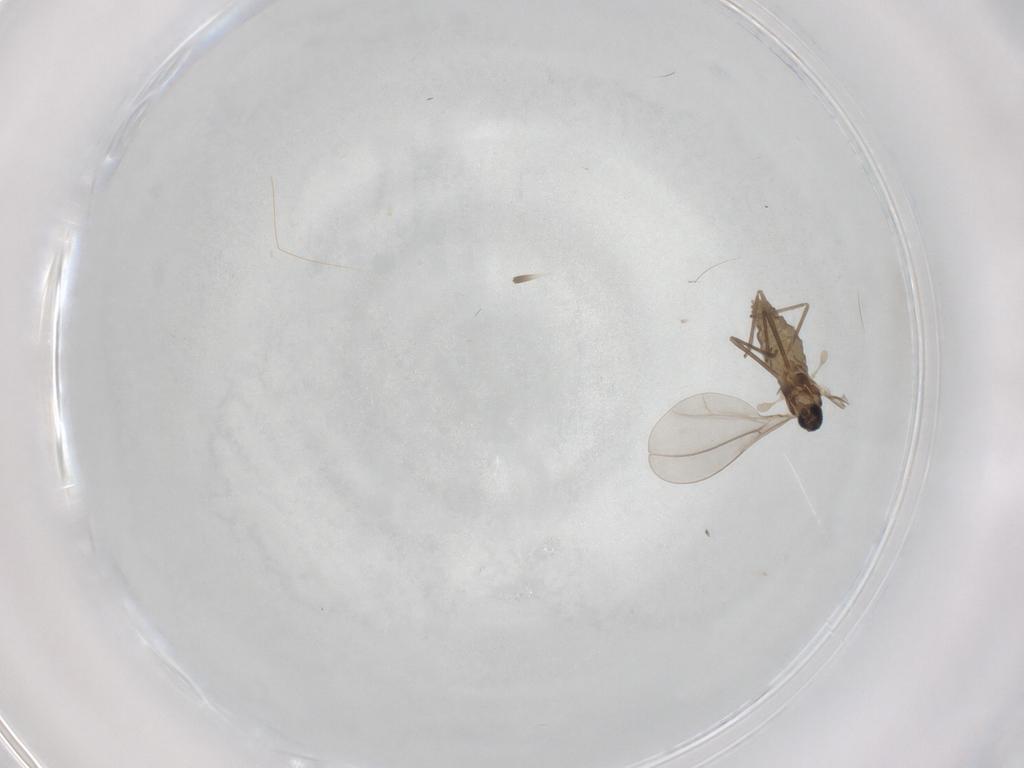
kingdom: Animalia
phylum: Arthropoda
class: Insecta
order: Diptera
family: Cecidomyiidae
